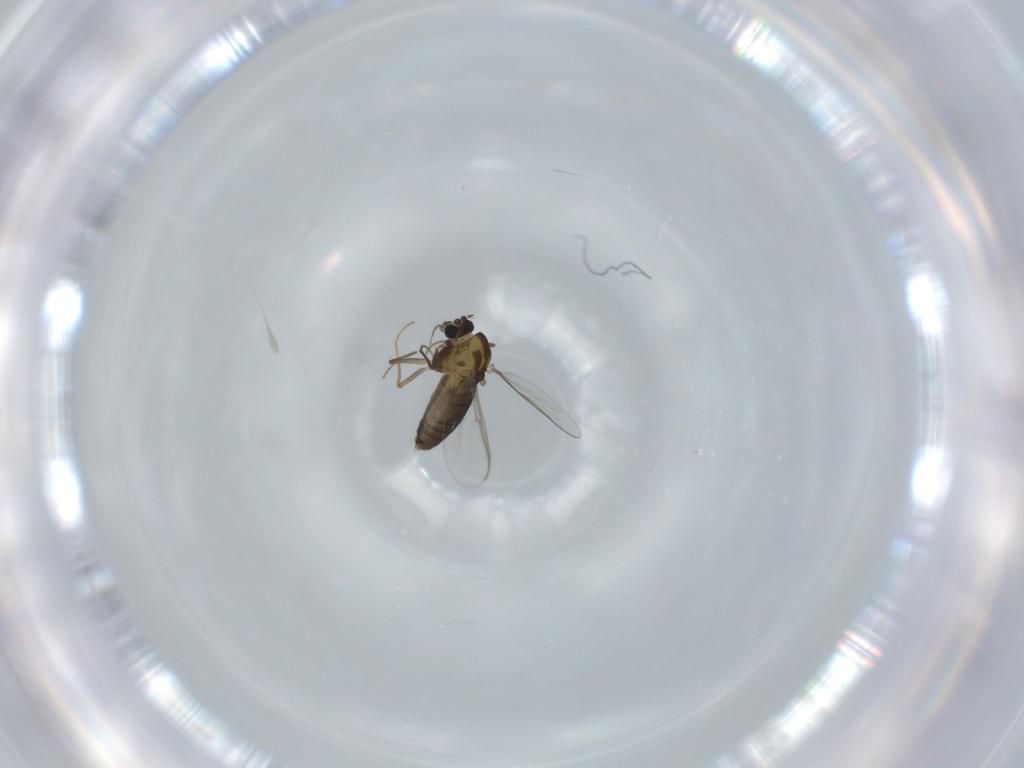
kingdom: Animalia
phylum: Arthropoda
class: Insecta
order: Diptera
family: Chironomidae
